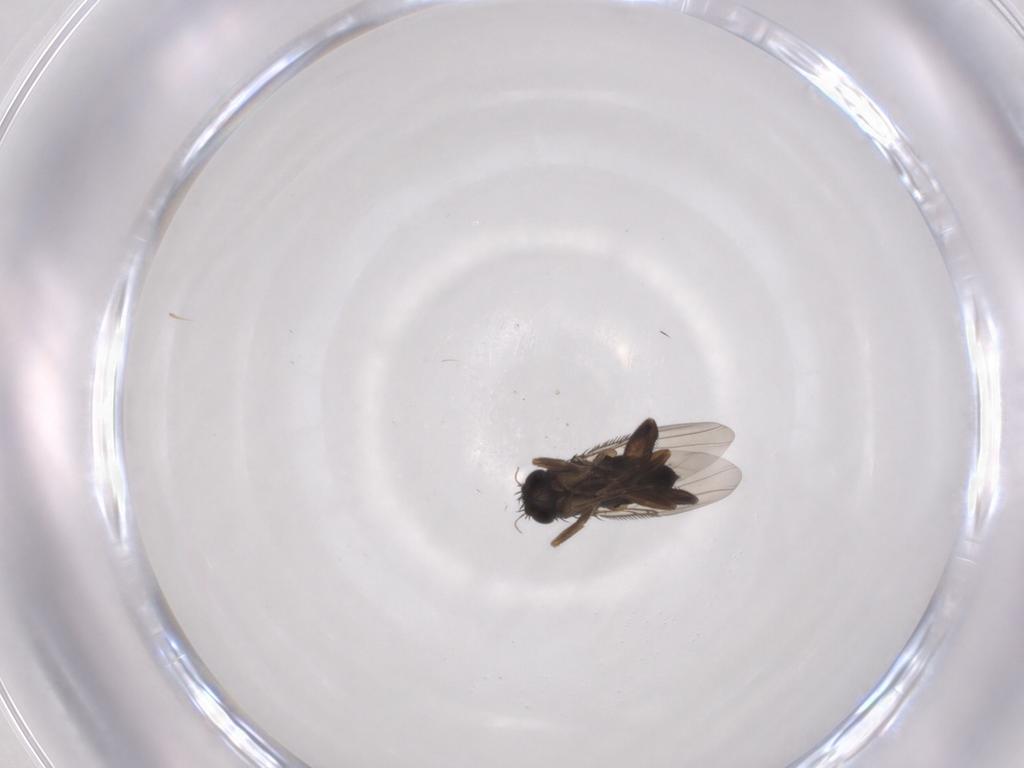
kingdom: Animalia
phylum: Arthropoda
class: Insecta
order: Diptera
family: Phoridae
